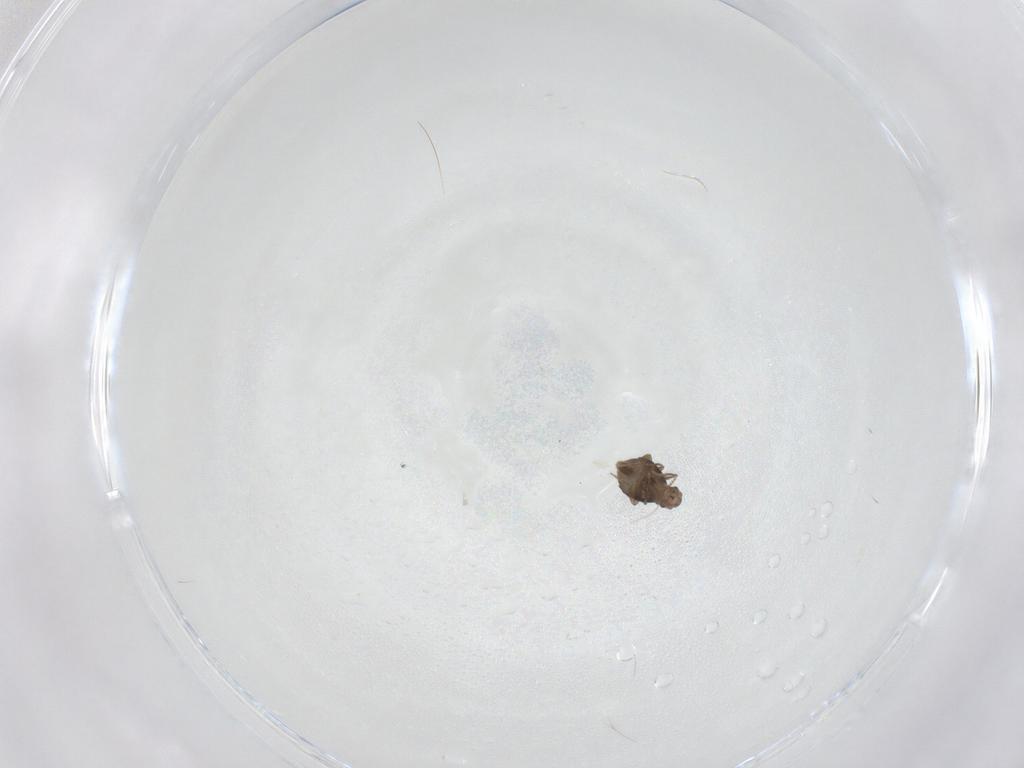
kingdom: Animalia
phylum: Arthropoda
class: Insecta
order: Diptera
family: Phoridae
